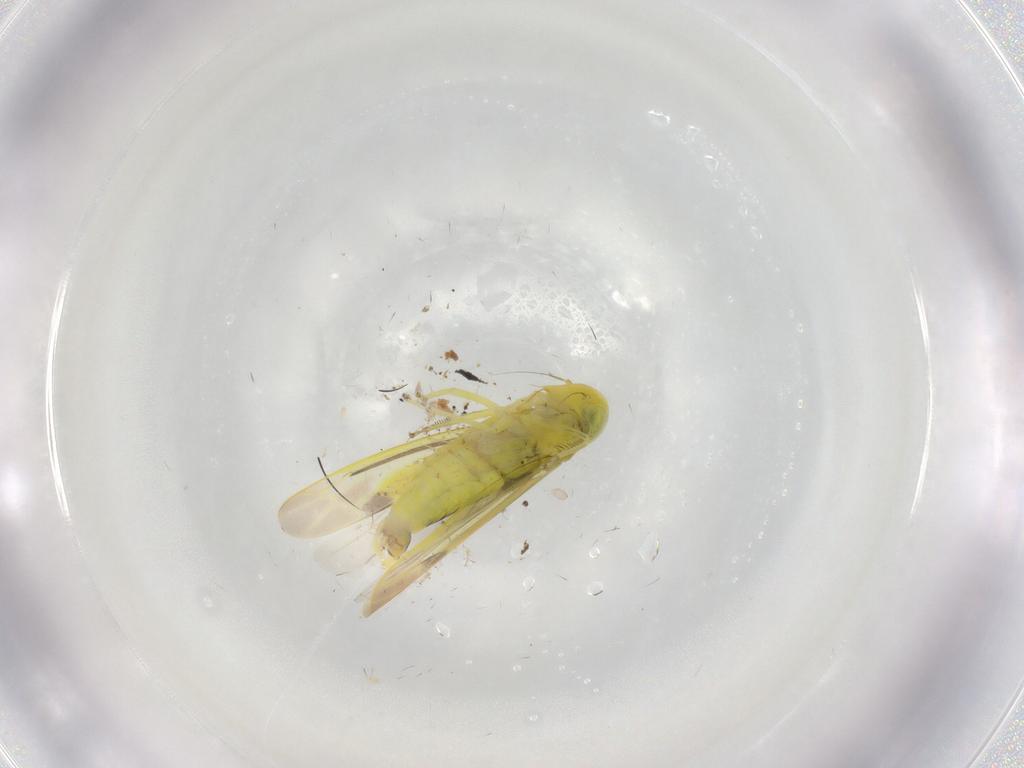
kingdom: Animalia
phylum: Arthropoda
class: Insecta
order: Hemiptera
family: Cicadellidae
